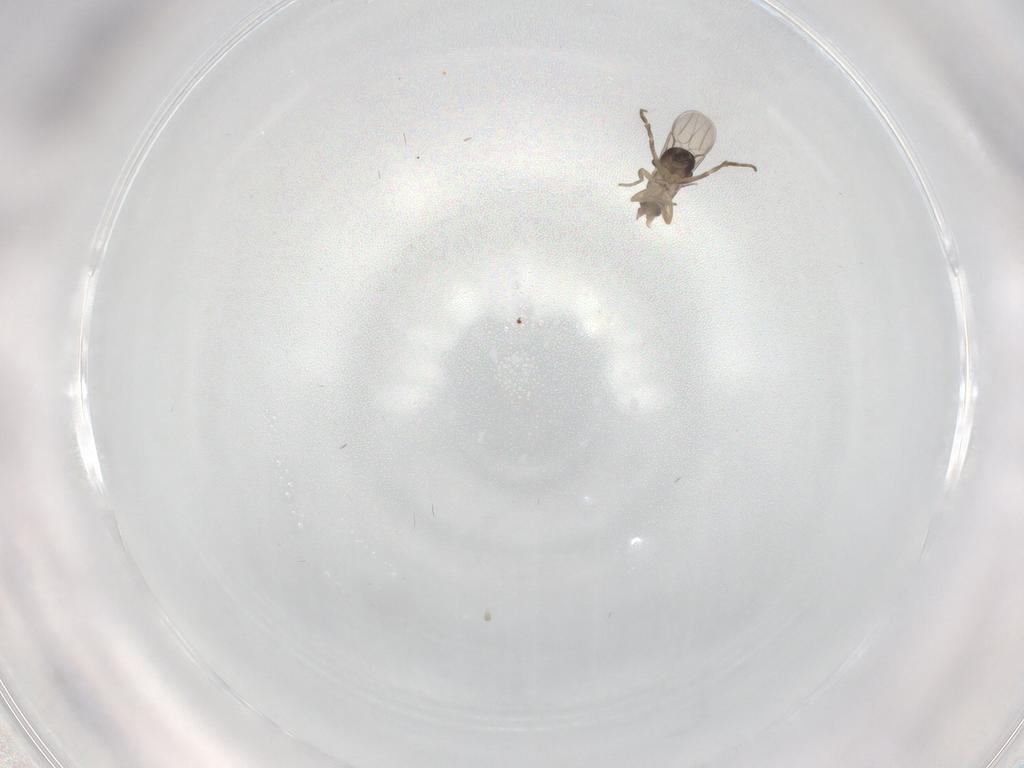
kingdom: Animalia
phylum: Arthropoda
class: Insecta
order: Diptera
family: Phoridae
